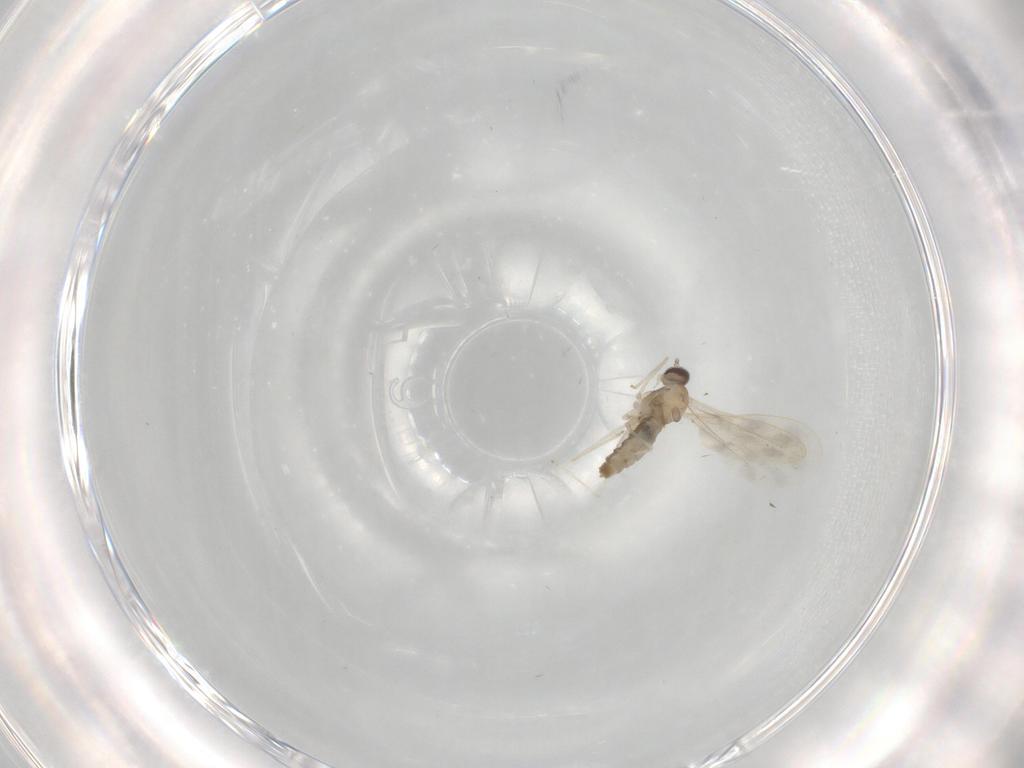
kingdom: Animalia
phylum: Arthropoda
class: Insecta
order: Diptera
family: Cecidomyiidae
